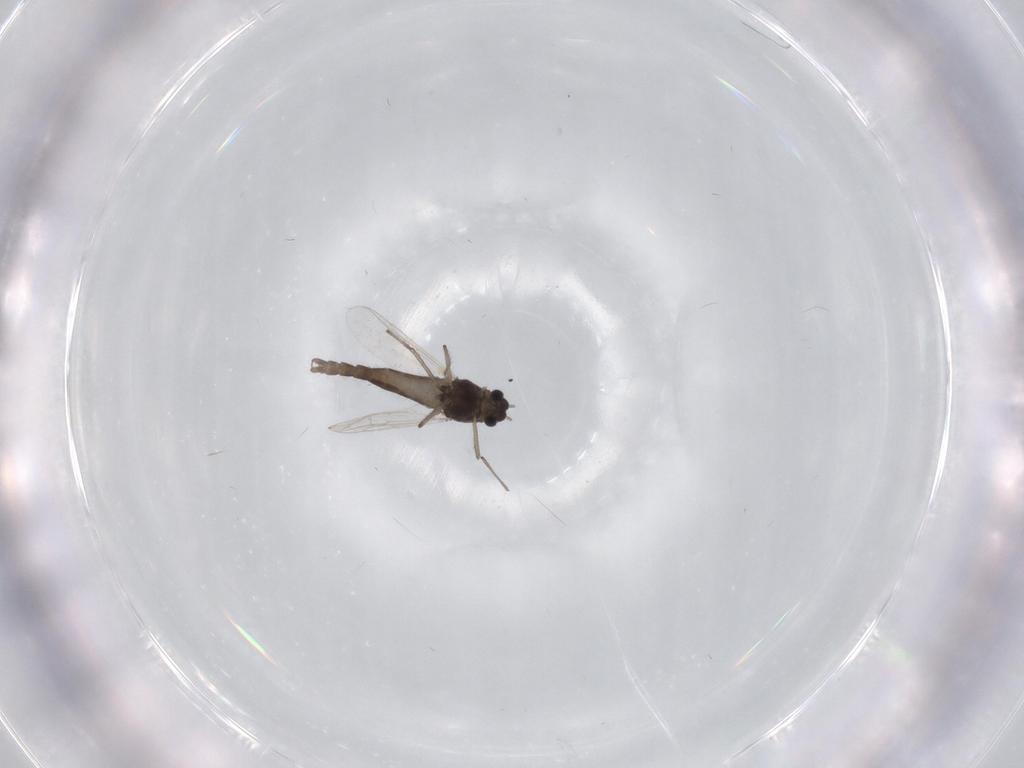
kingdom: Animalia
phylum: Arthropoda
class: Insecta
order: Diptera
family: Chironomidae
